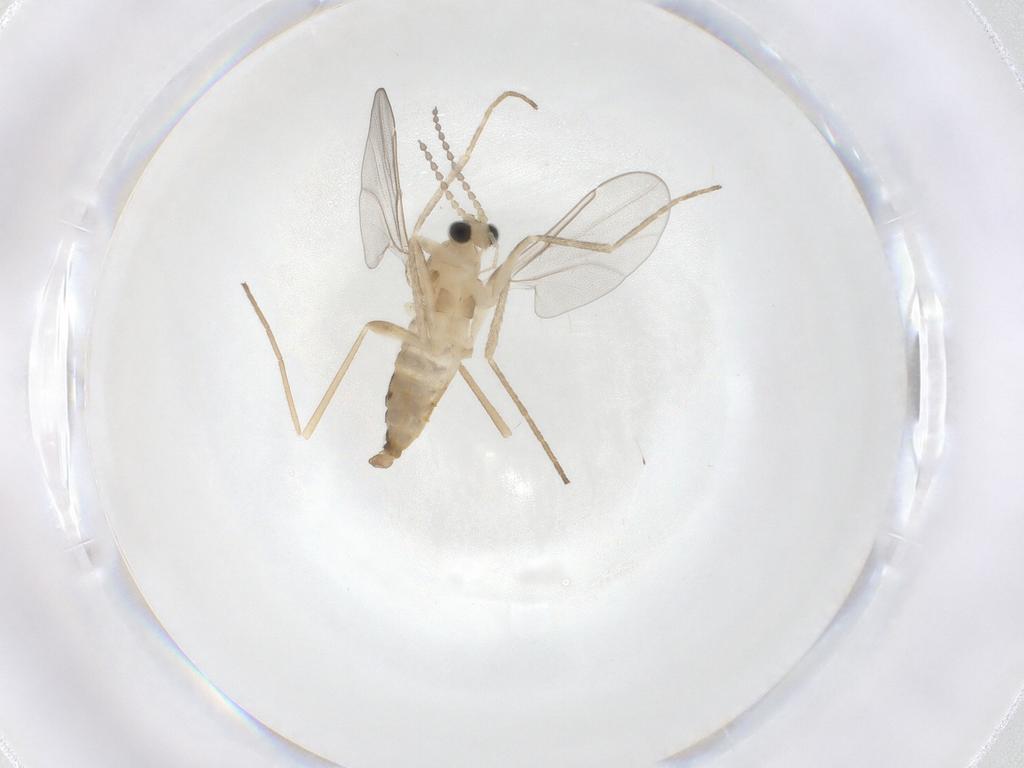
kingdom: Animalia
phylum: Arthropoda
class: Insecta
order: Diptera
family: Cecidomyiidae
